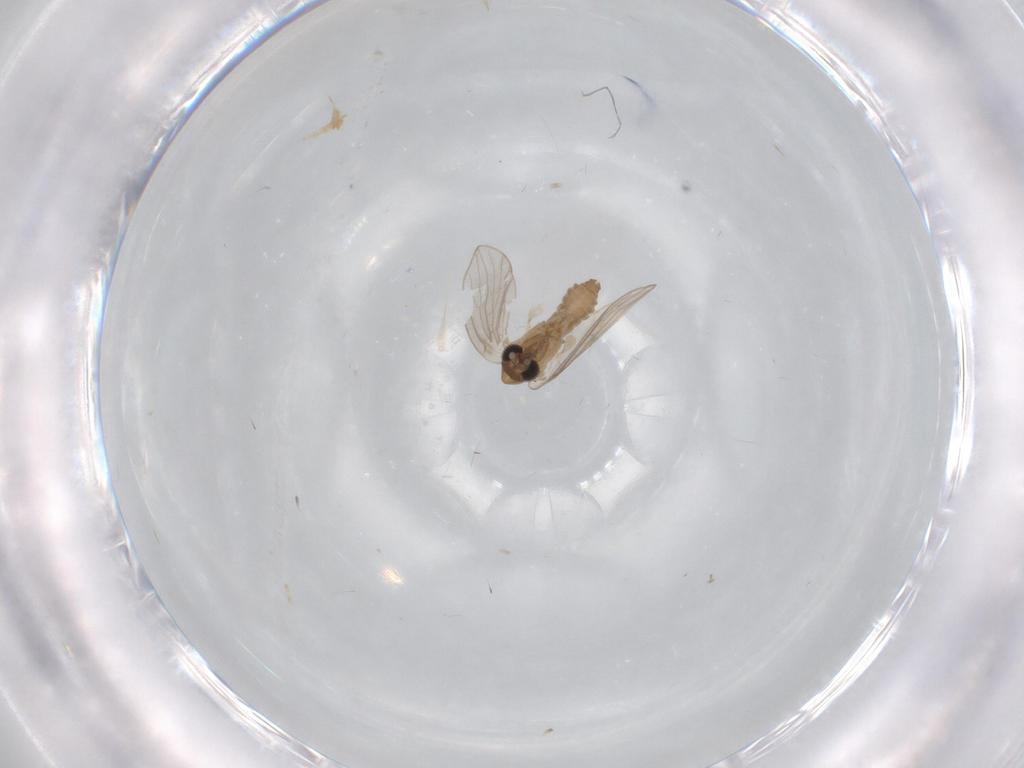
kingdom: Animalia
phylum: Arthropoda
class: Insecta
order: Diptera
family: Psychodidae
